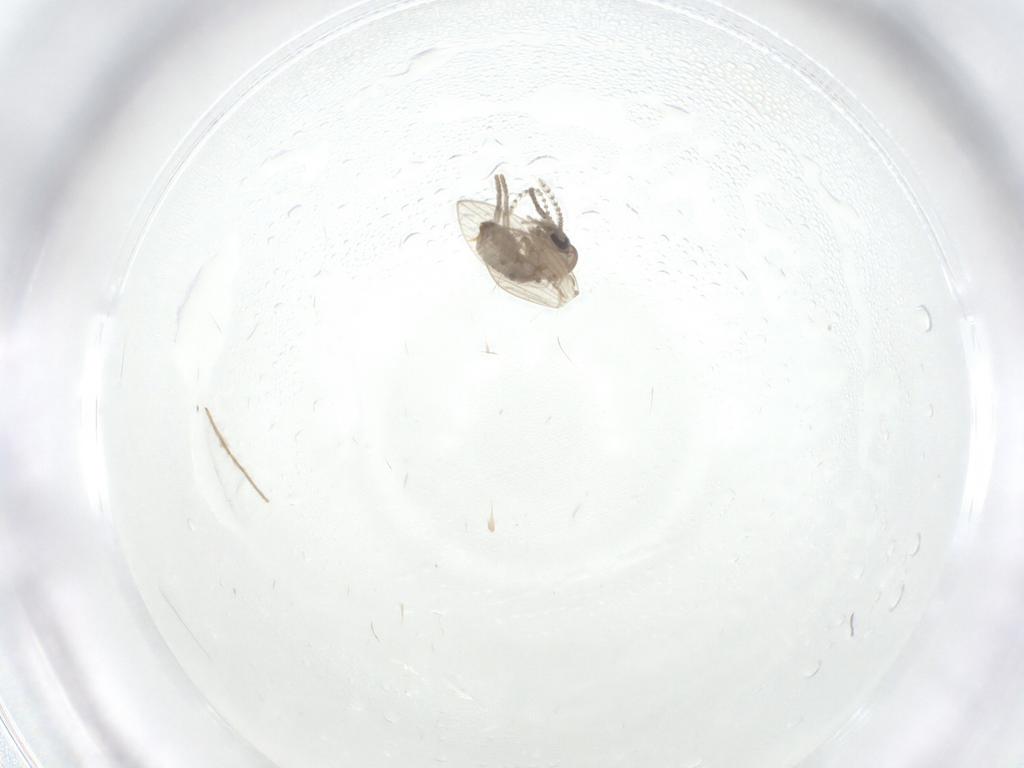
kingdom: Animalia
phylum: Arthropoda
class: Insecta
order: Diptera
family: Psychodidae
